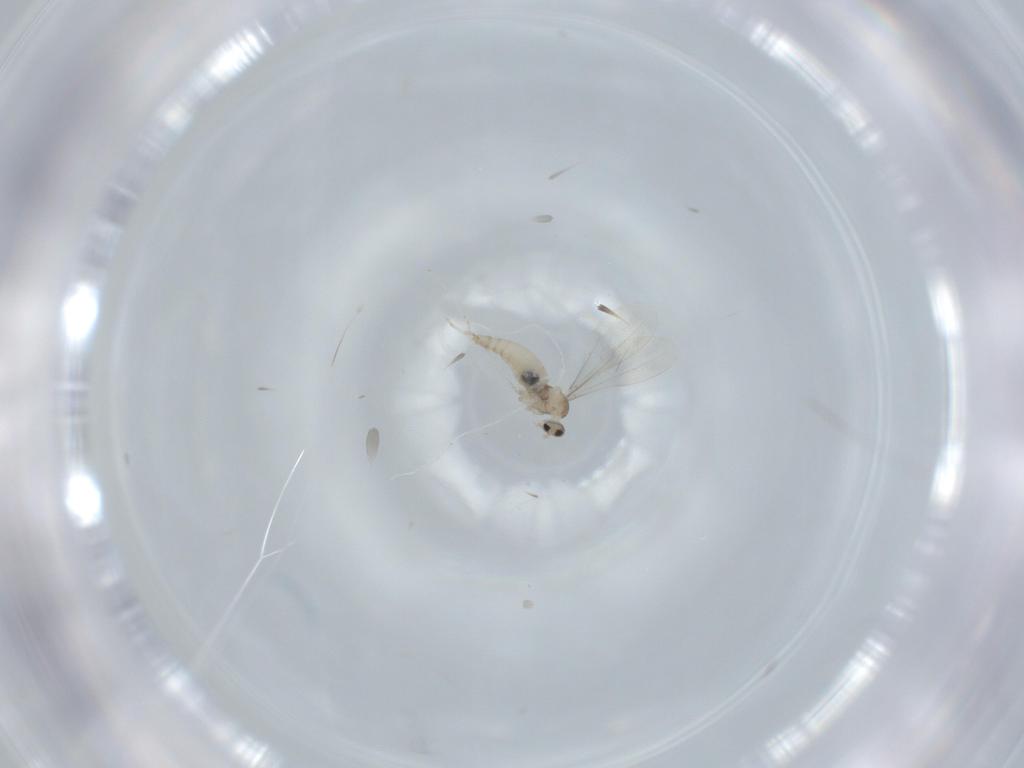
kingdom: Animalia
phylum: Arthropoda
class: Insecta
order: Diptera
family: Cecidomyiidae
